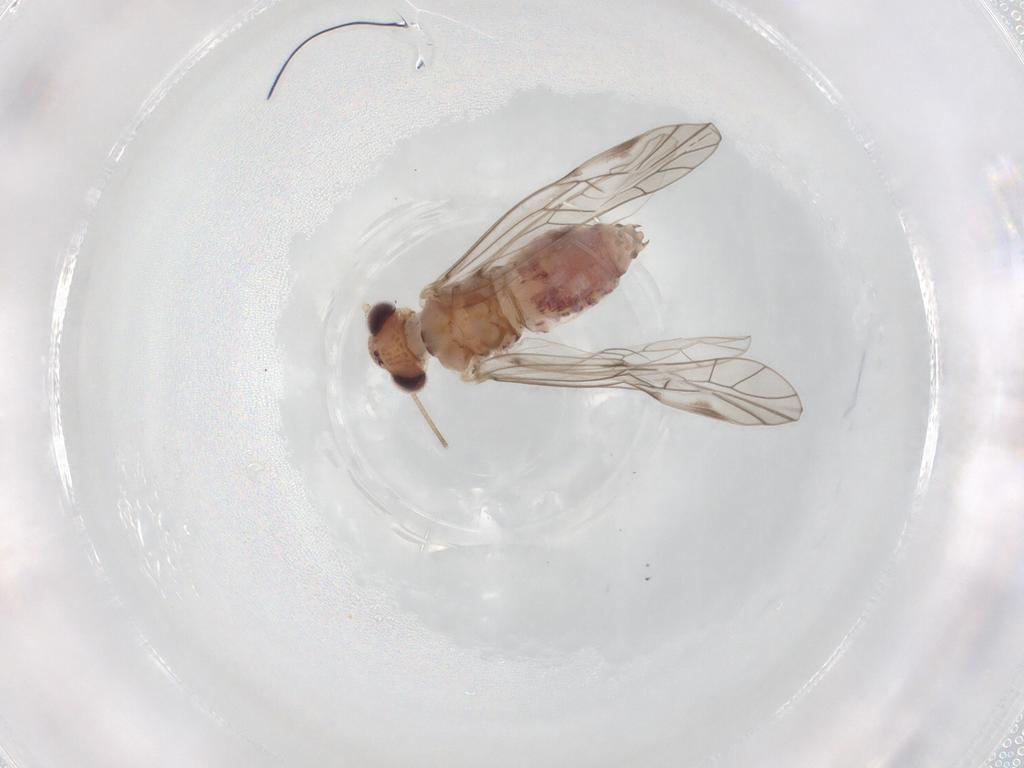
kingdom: Animalia
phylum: Arthropoda
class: Insecta
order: Psocodea
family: Psocidae
